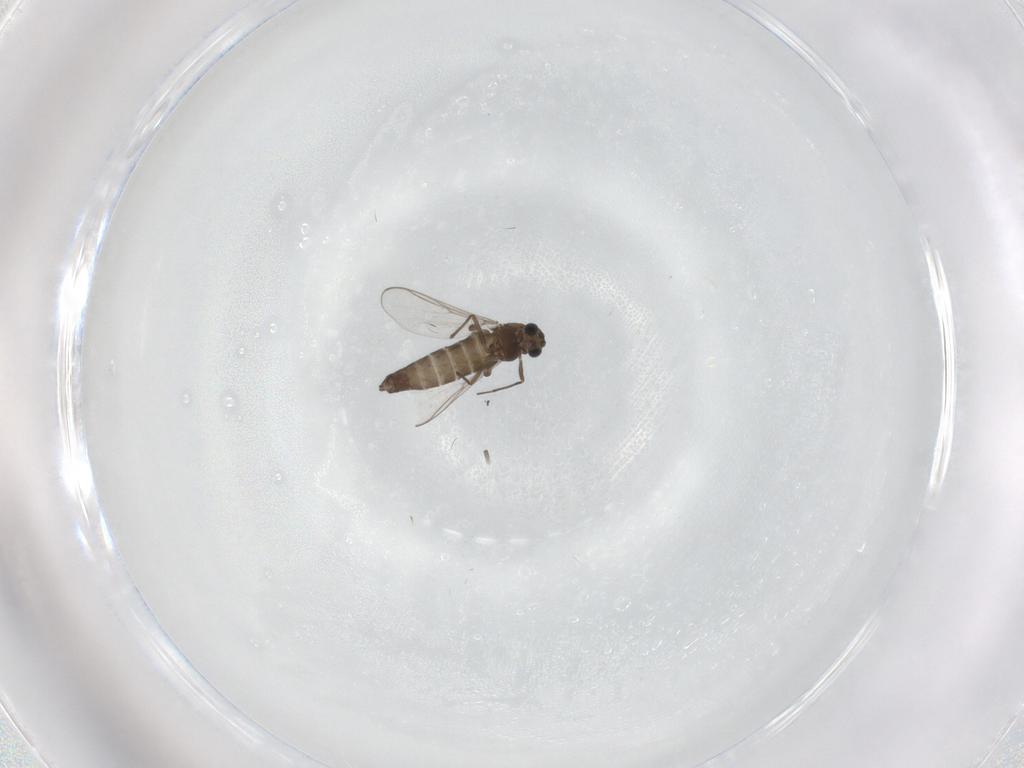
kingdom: Animalia
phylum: Arthropoda
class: Insecta
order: Diptera
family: Chironomidae
